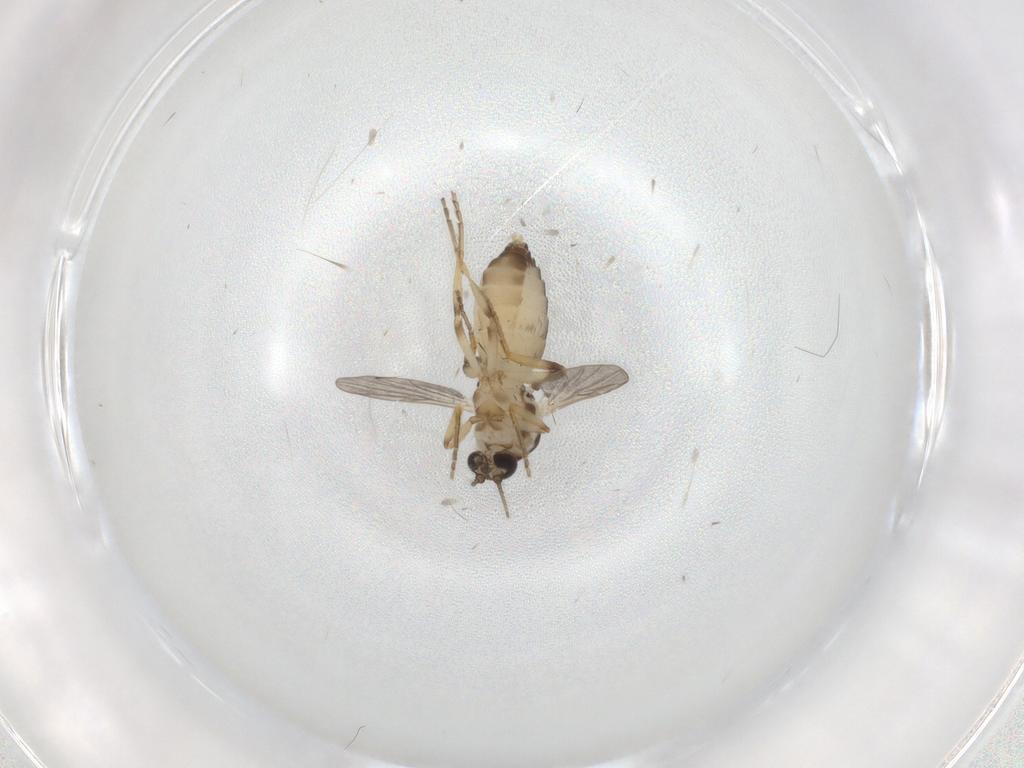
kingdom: Animalia
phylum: Arthropoda
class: Insecta
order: Diptera
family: Ceratopogonidae
